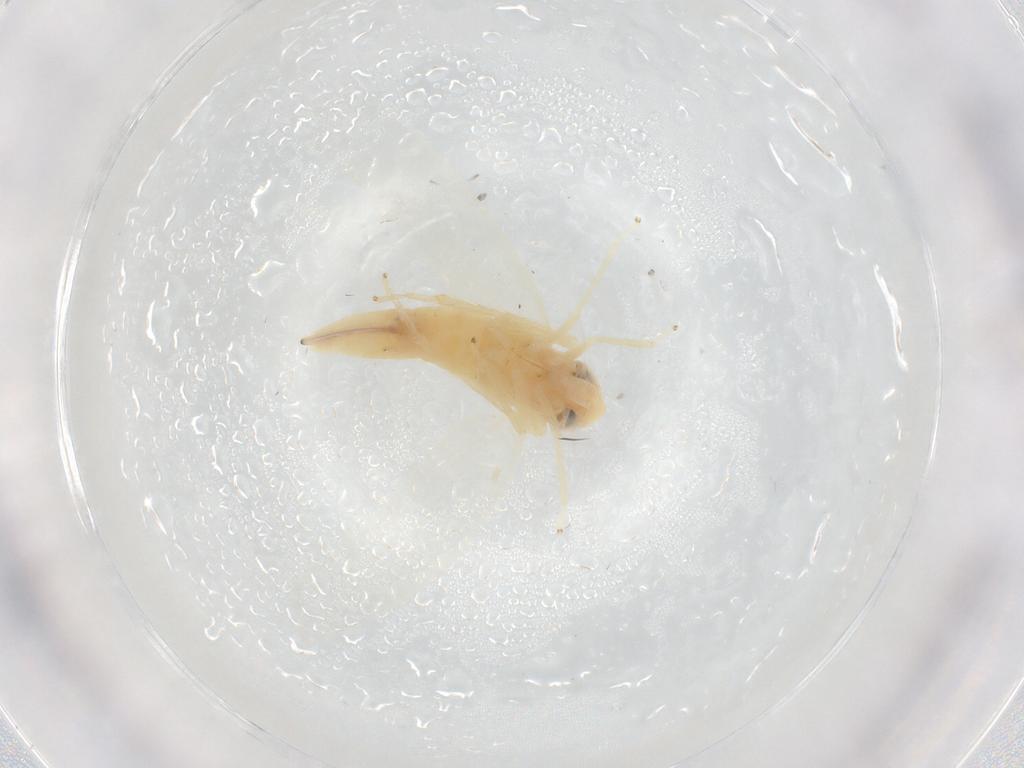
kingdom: Animalia
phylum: Arthropoda
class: Insecta
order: Hemiptera
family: Cicadellidae
